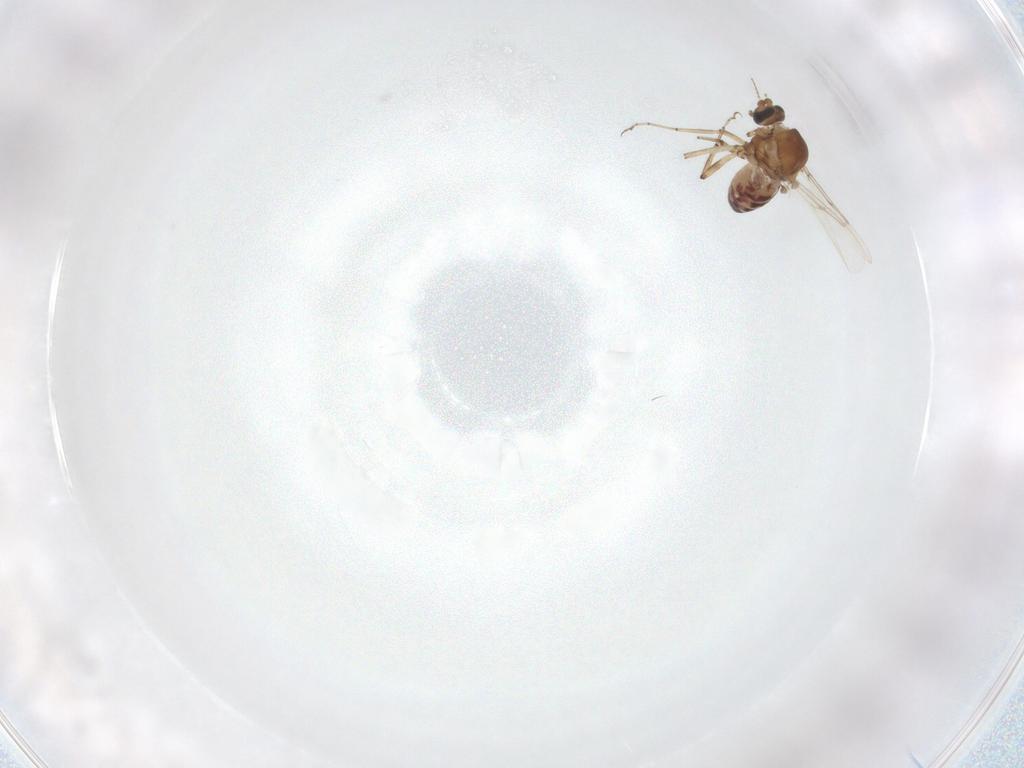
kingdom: Animalia
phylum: Arthropoda
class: Insecta
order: Diptera
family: Ceratopogonidae
